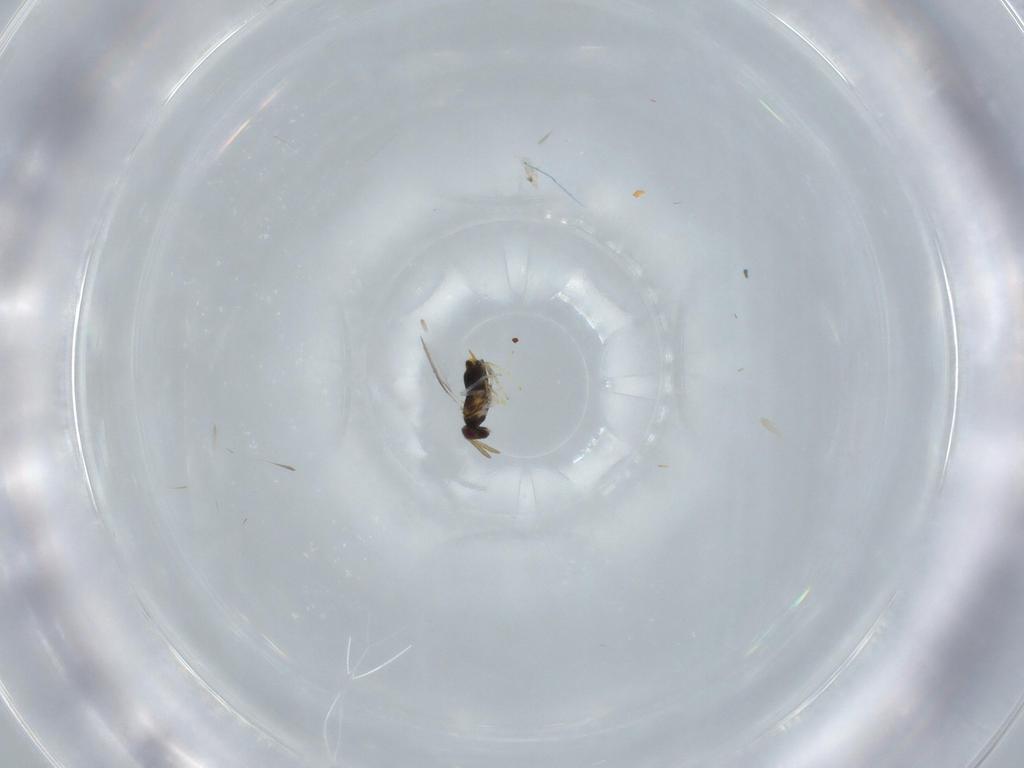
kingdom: Animalia
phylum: Arthropoda
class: Insecta
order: Hymenoptera
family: Aphelinidae
